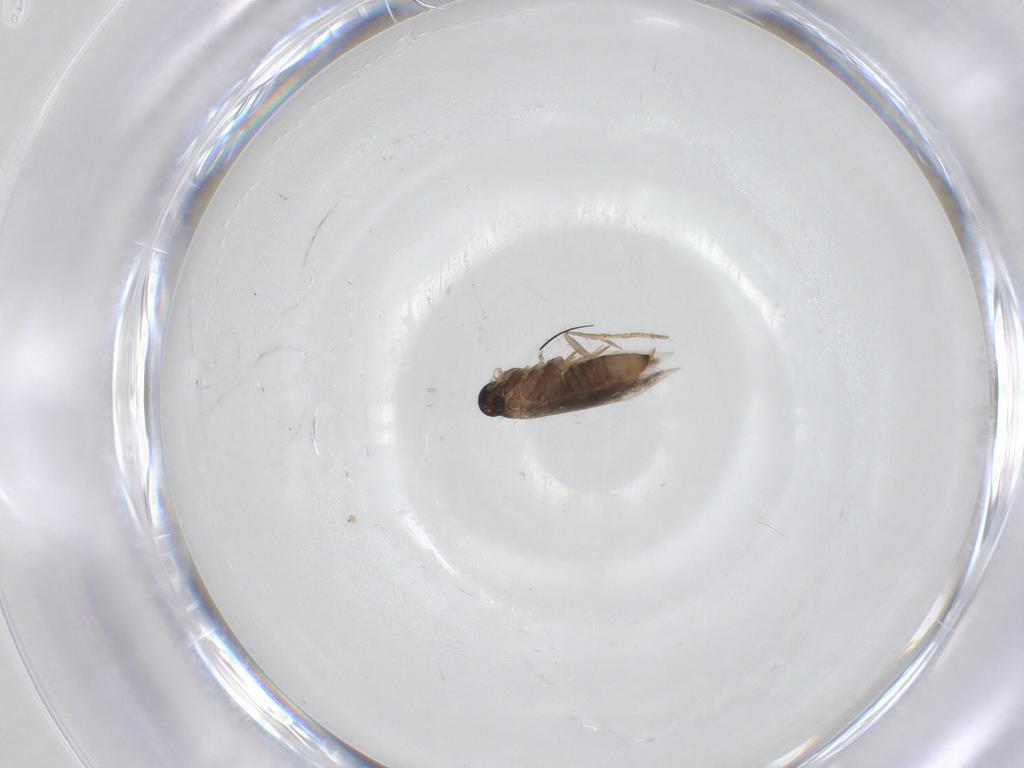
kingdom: Animalia
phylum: Arthropoda
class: Insecta
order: Lepidoptera
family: Heliozelidae
